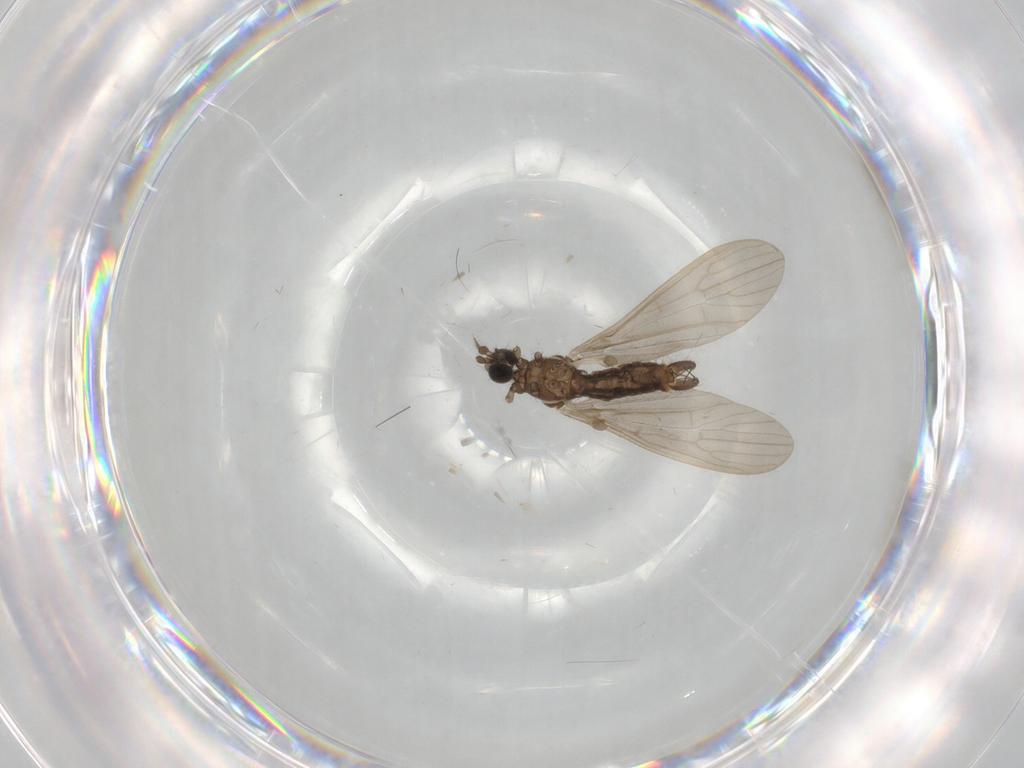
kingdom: Animalia
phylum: Arthropoda
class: Insecta
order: Diptera
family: Limoniidae
